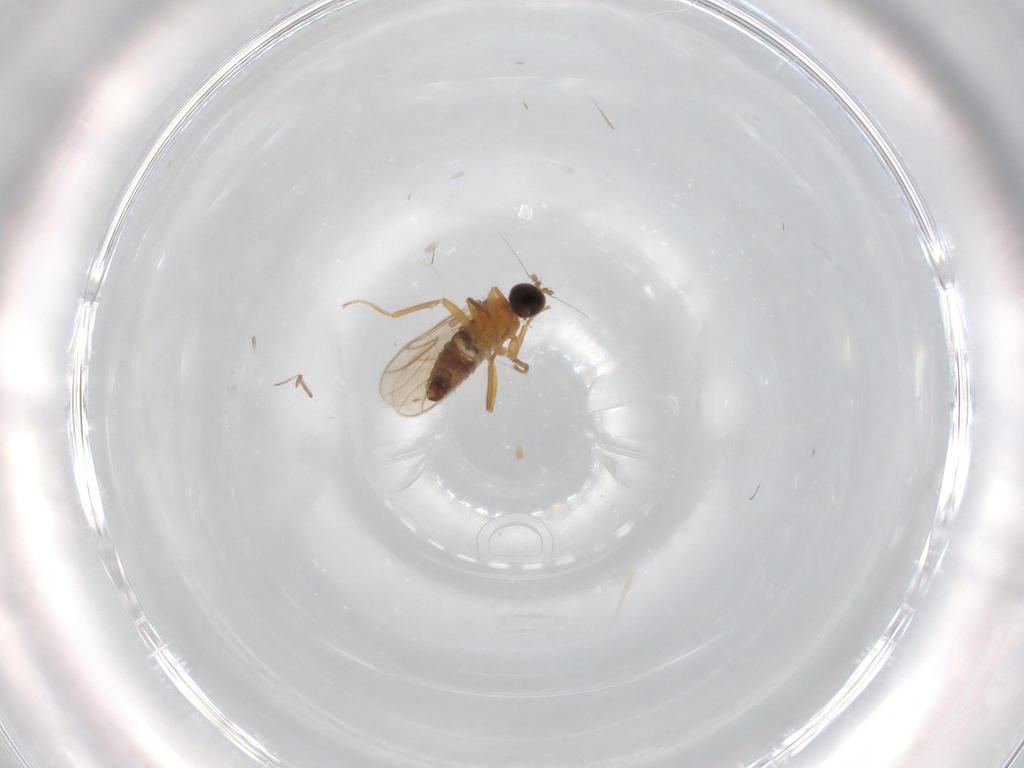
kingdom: Animalia
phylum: Arthropoda
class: Insecta
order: Diptera
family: Hybotidae
